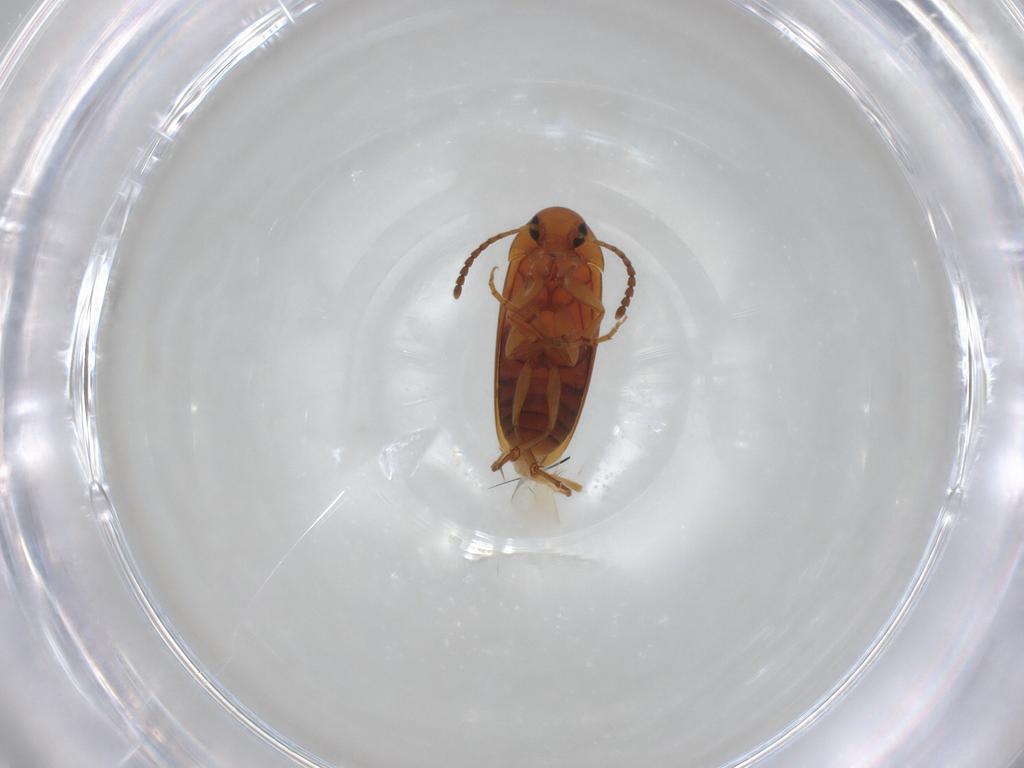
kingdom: Animalia
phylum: Arthropoda
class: Insecta
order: Coleoptera
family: Scraptiidae
